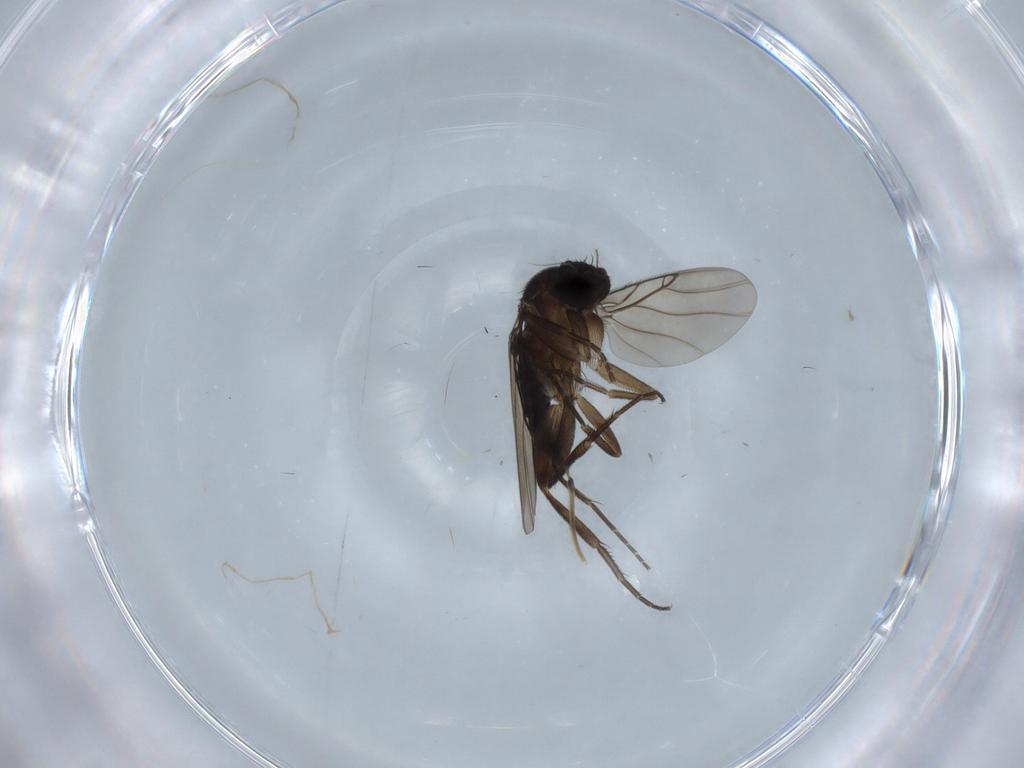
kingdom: Animalia
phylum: Arthropoda
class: Insecta
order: Diptera
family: Phoridae
